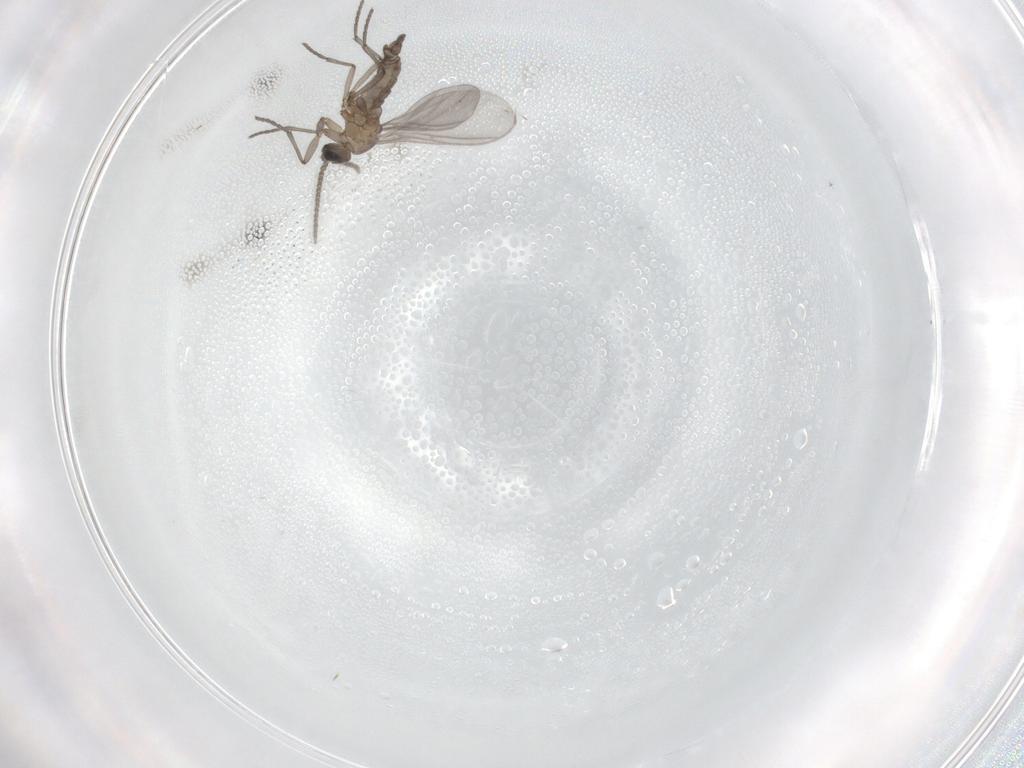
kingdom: Animalia
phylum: Arthropoda
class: Insecta
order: Diptera
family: Sciaridae
